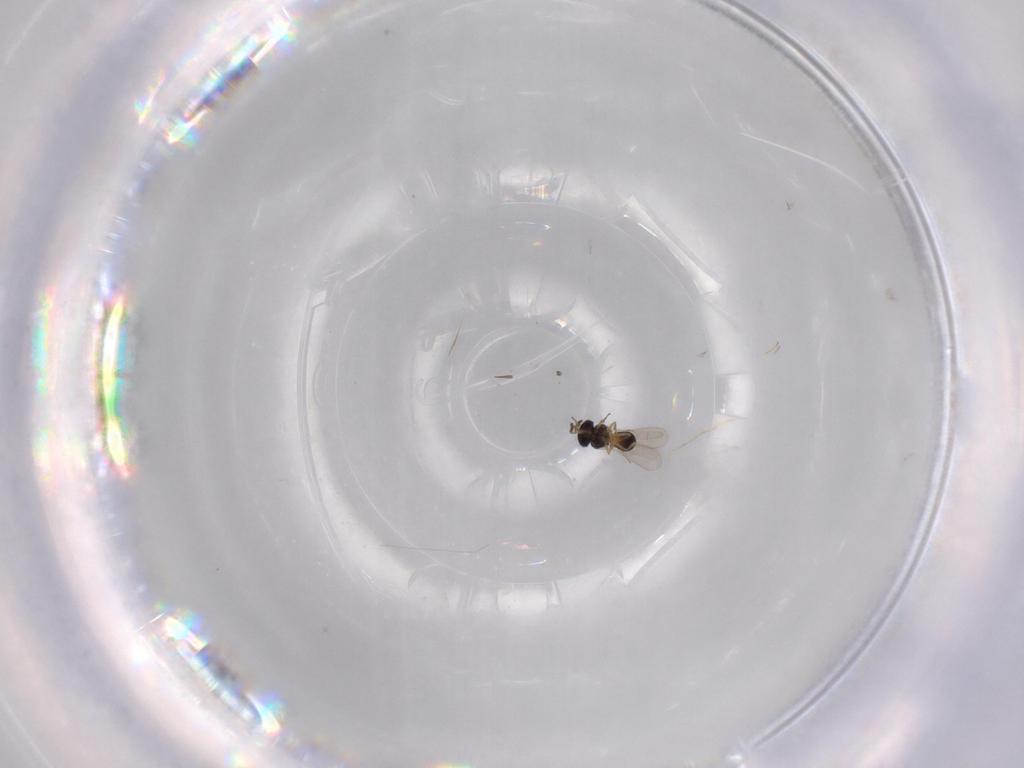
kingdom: Animalia
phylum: Arthropoda
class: Insecta
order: Hymenoptera
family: Scelionidae
